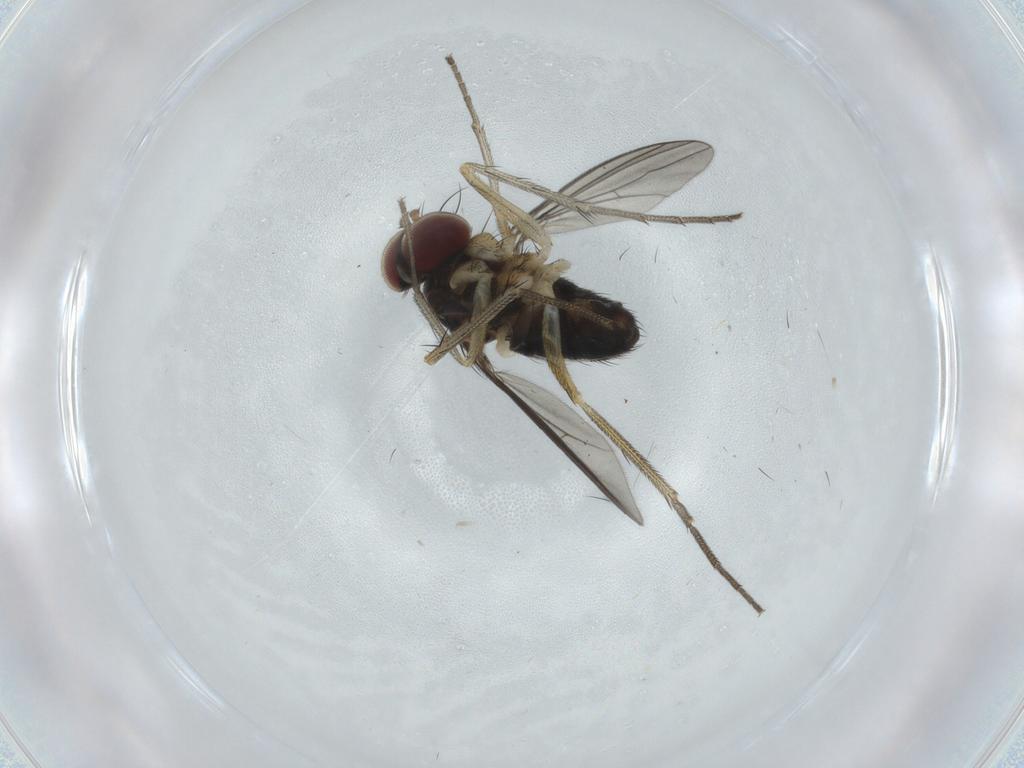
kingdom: Animalia
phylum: Arthropoda
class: Insecta
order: Diptera
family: Dolichopodidae
